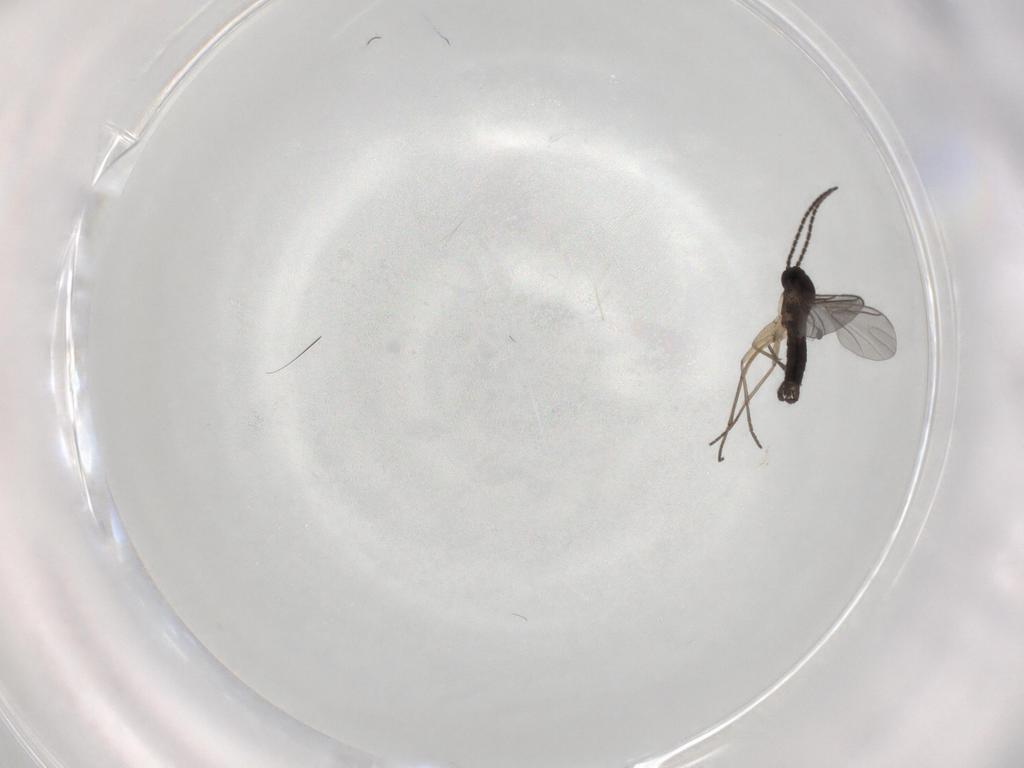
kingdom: Animalia
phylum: Arthropoda
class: Insecta
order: Diptera
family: Sciaridae
